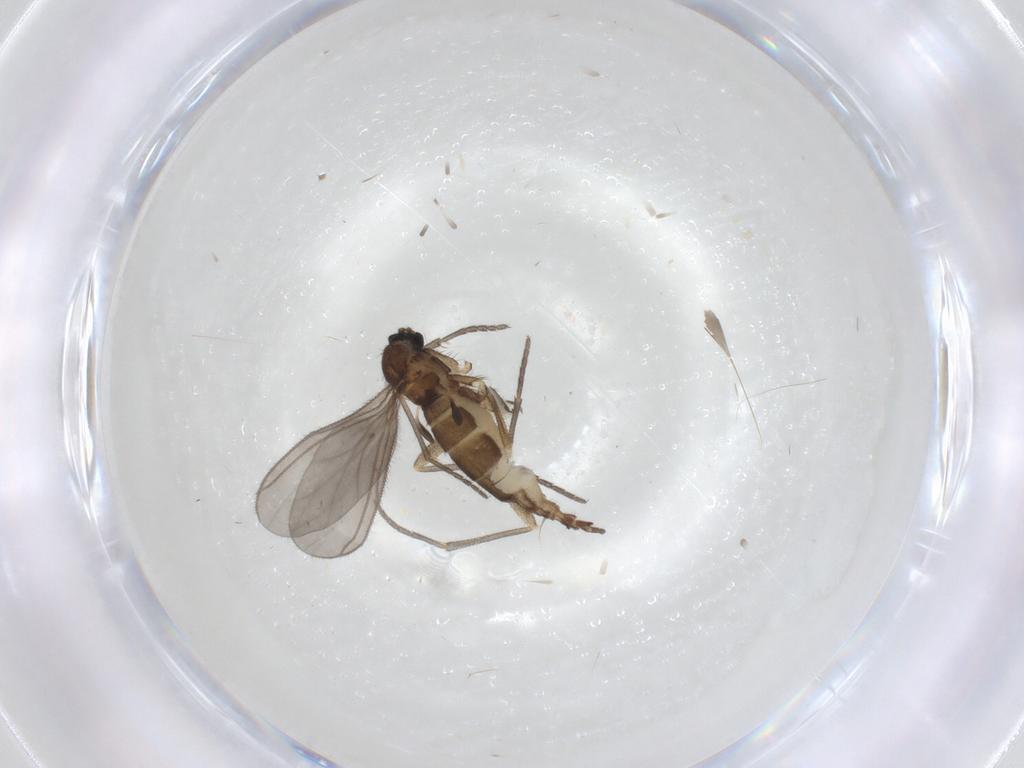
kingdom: Animalia
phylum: Arthropoda
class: Insecta
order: Diptera
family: Sciaridae
